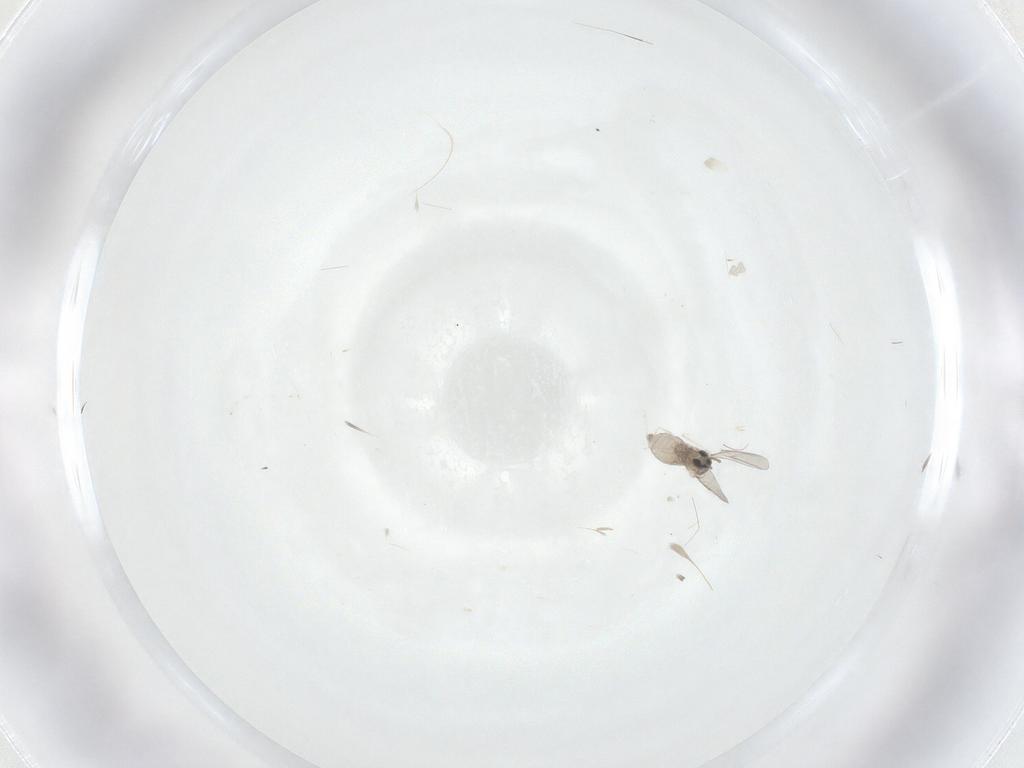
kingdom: Animalia
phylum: Arthropoda
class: Insecta
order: Diptera
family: Cecidomyiidae
